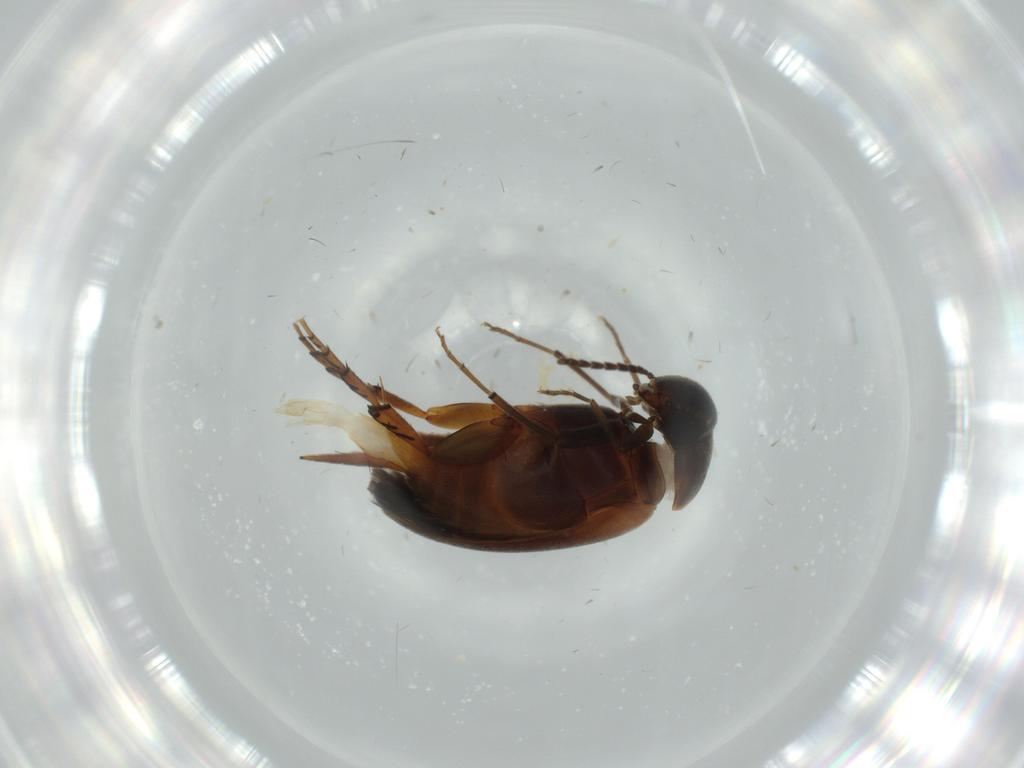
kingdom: Animalia
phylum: Arthropoda
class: Insecta
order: Coleoptera
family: Mordellidae
